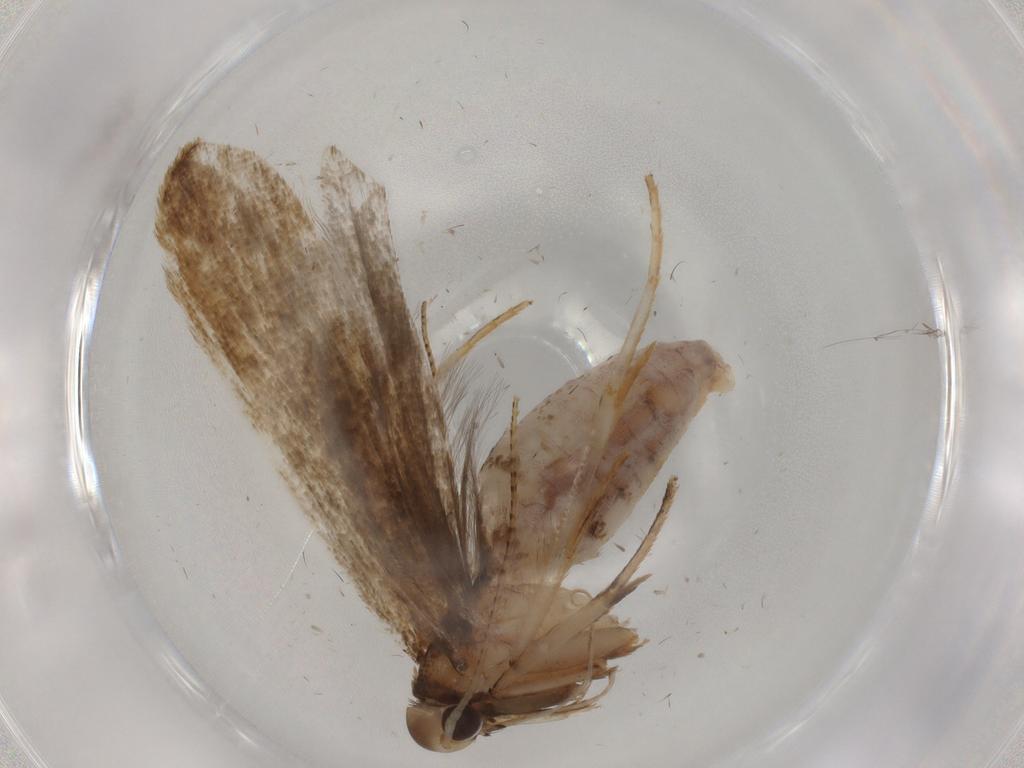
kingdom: Animalia
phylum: Arthropoda
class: Insecta
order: Lepidoptera
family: Gelechiidae
